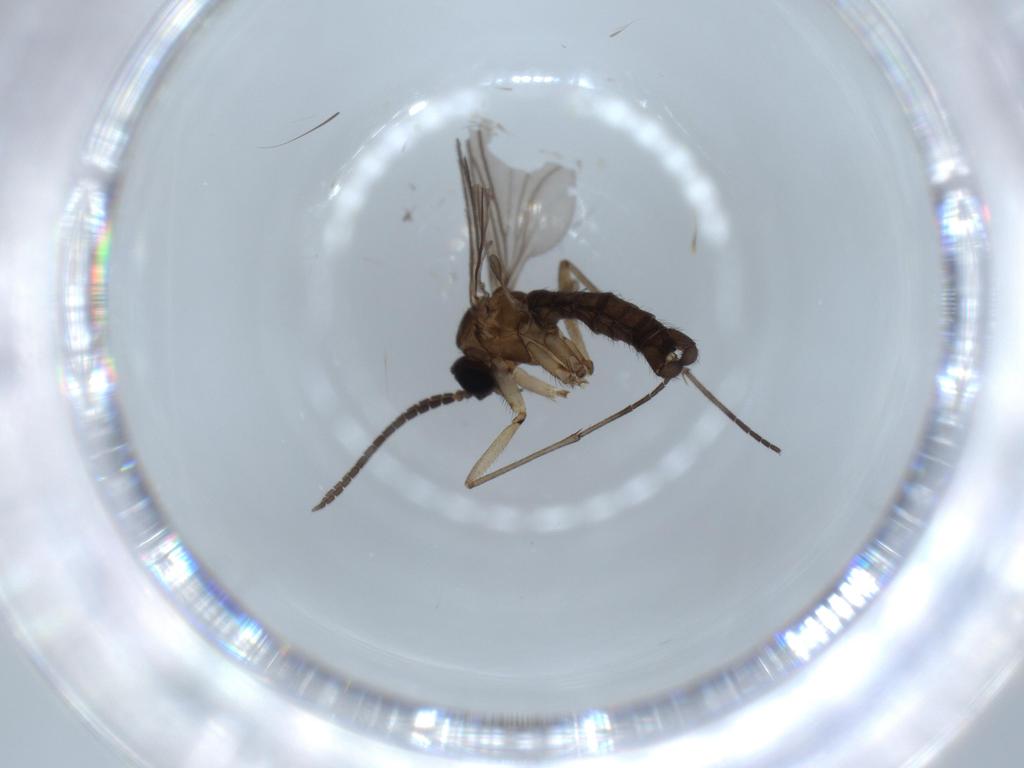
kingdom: Animalia
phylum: Arthropoda
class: Insecta
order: Diptera
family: Sciaridae
